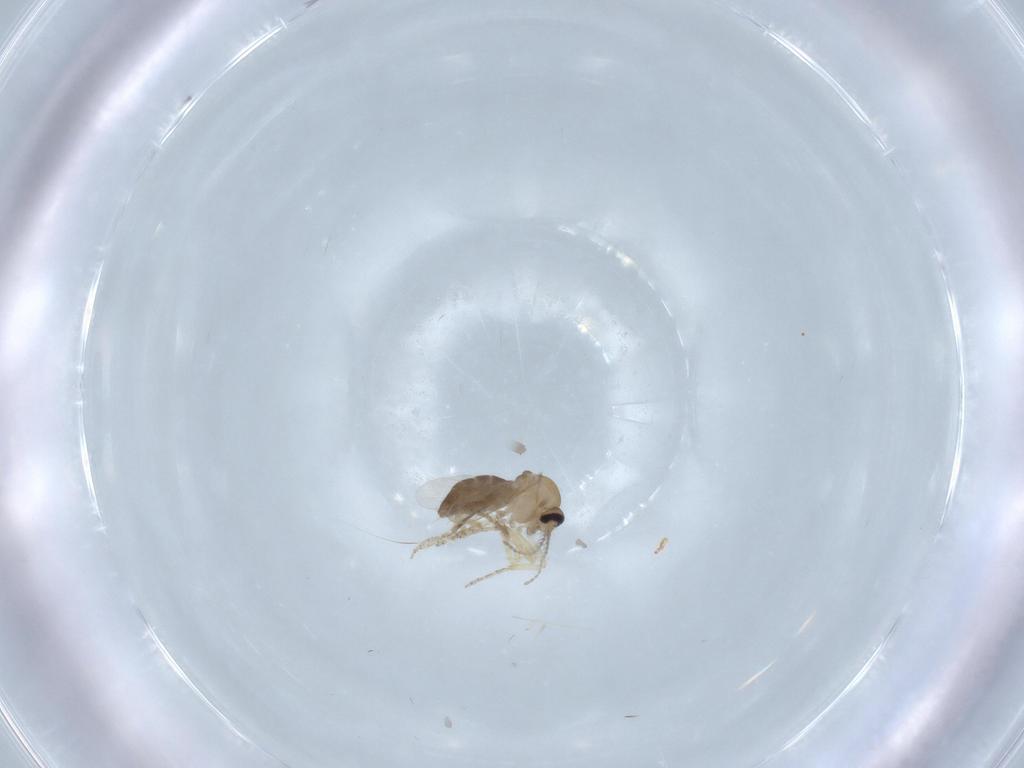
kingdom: Animalia
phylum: Arthropoda
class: Insecta
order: Diptera
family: Ceratopogonidae
